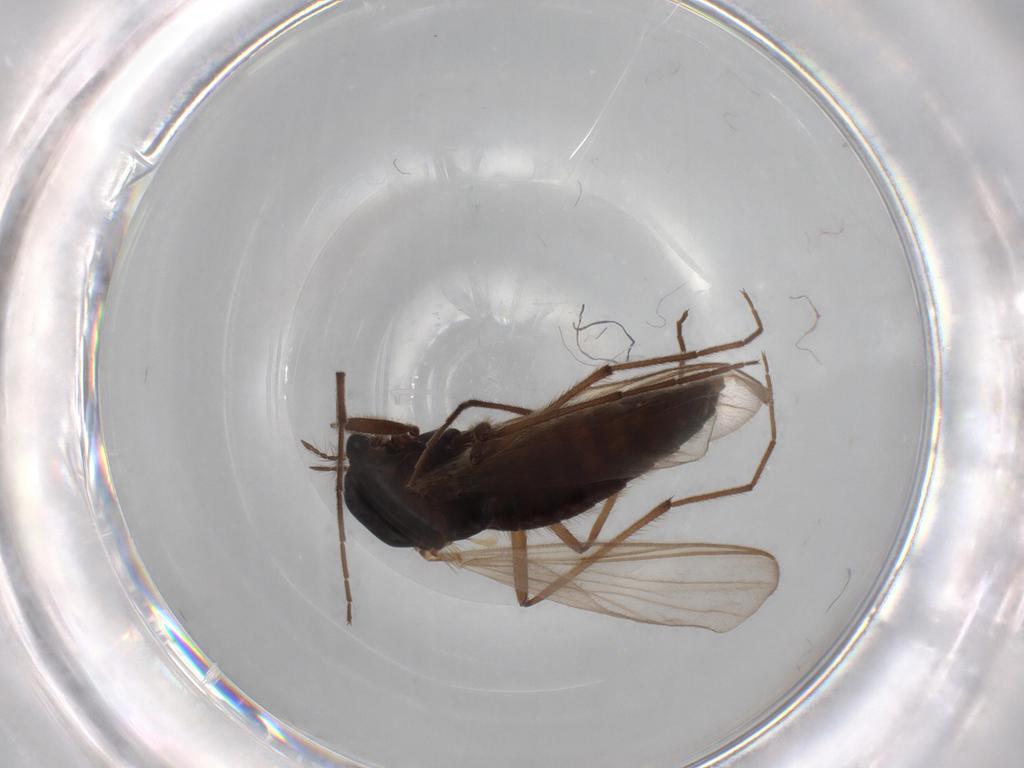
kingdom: Animalia
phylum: Arthropoda
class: Insecta
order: Diptera
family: Chironomidae
